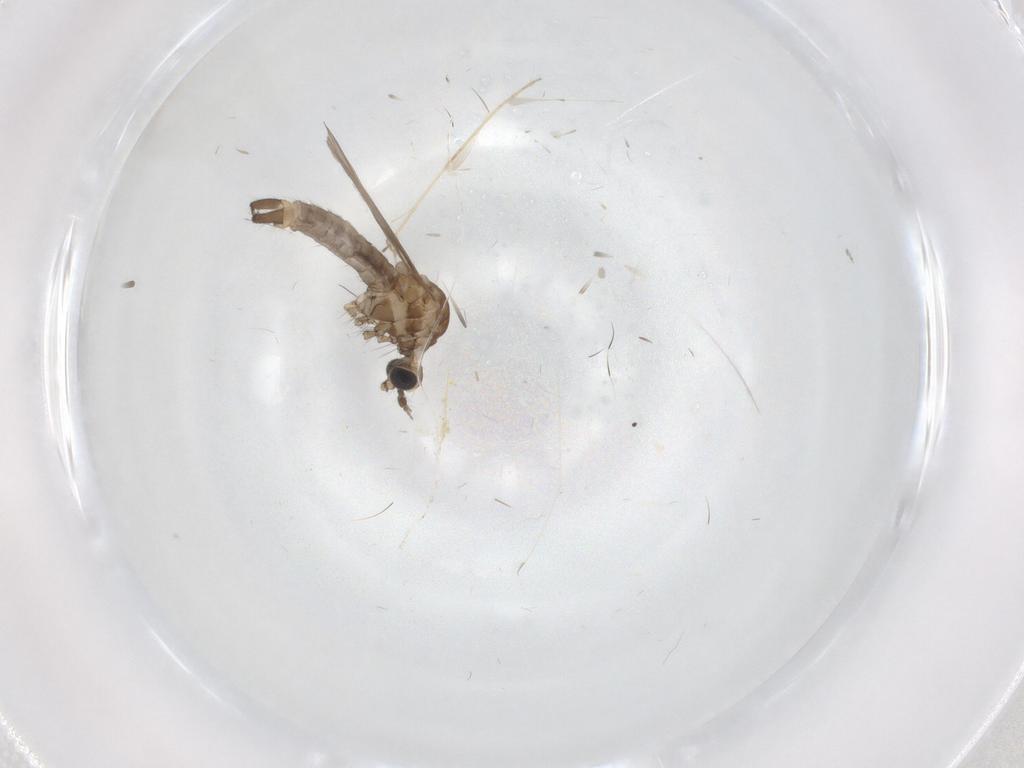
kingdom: Animalia
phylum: Arthropoda
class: Insecta
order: Diptera
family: Limoniidae
